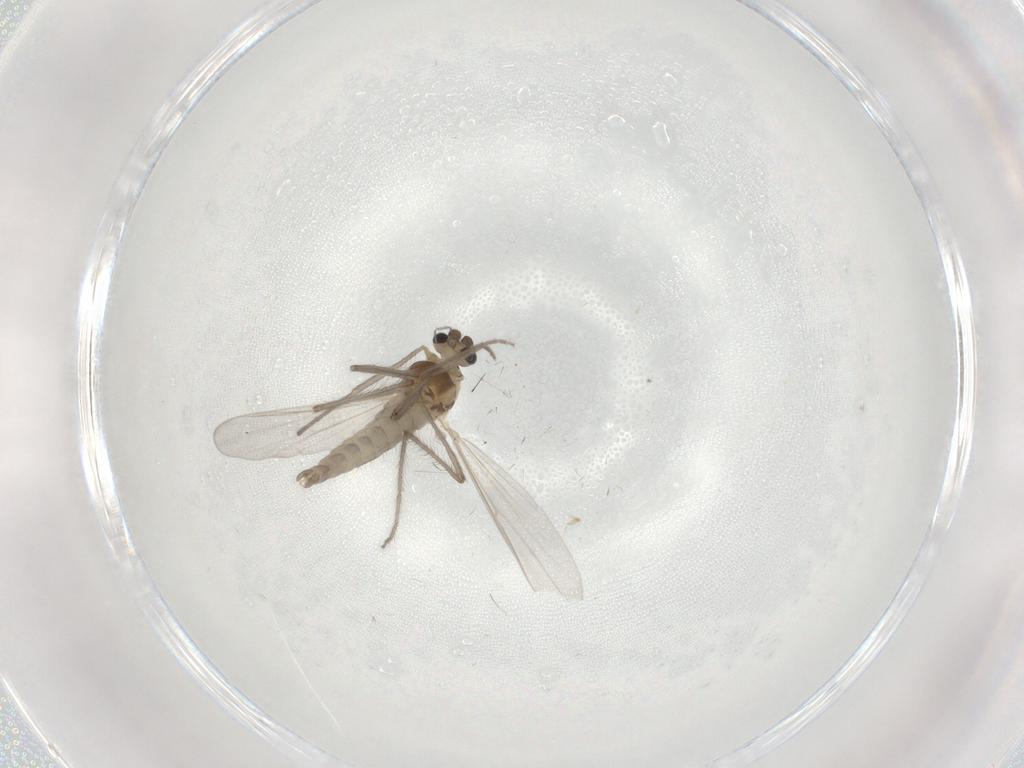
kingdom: Animalia
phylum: Arthropoda
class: Insecta
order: Diptera
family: Chironomidae
